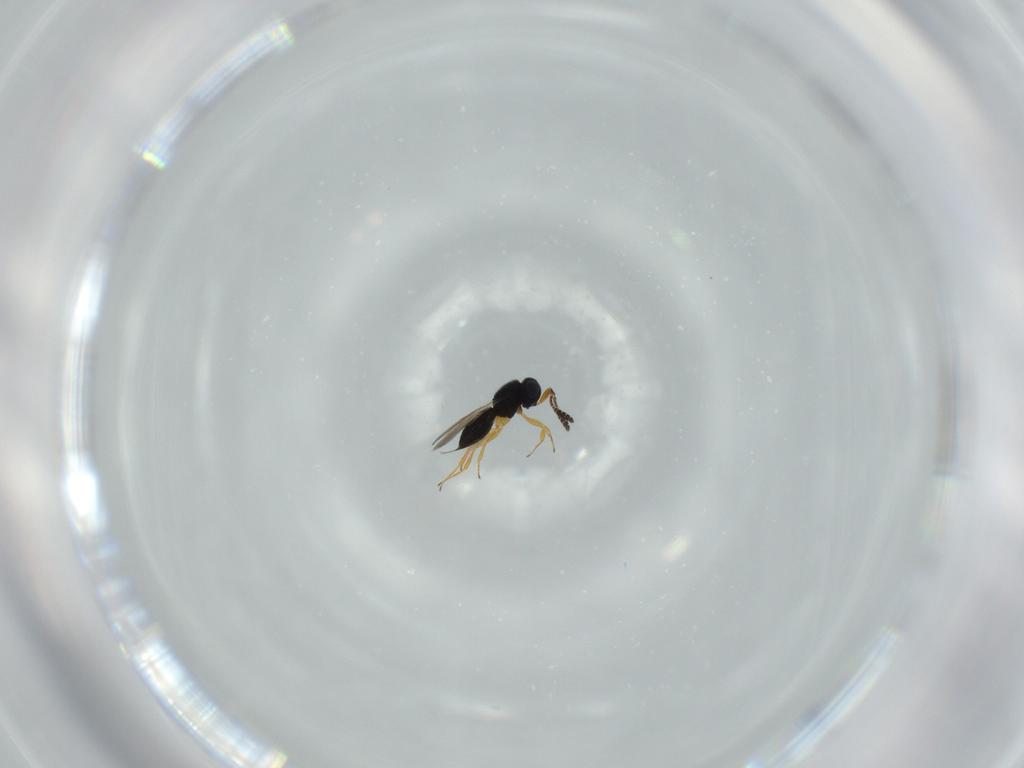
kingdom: Animalia
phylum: Arthropoda
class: Insecta
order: Hymenoptera
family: Scelionidae
